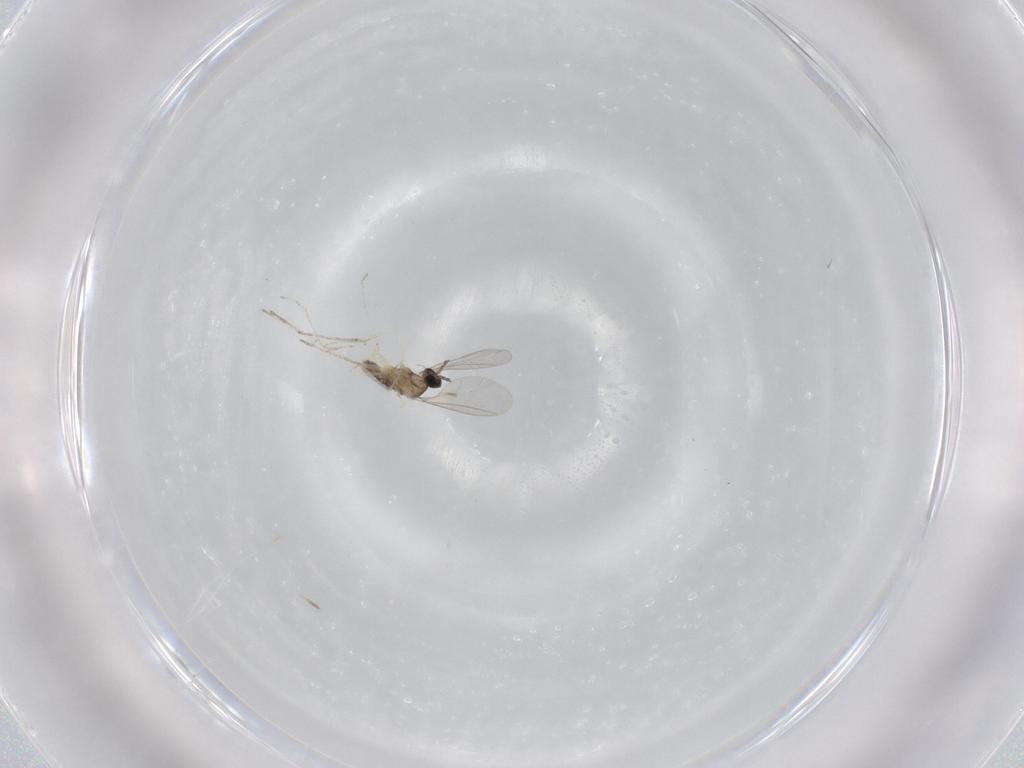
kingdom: Animalia
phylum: Arthropoda
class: Insecta
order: Diptera
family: Cecidomyiidae
